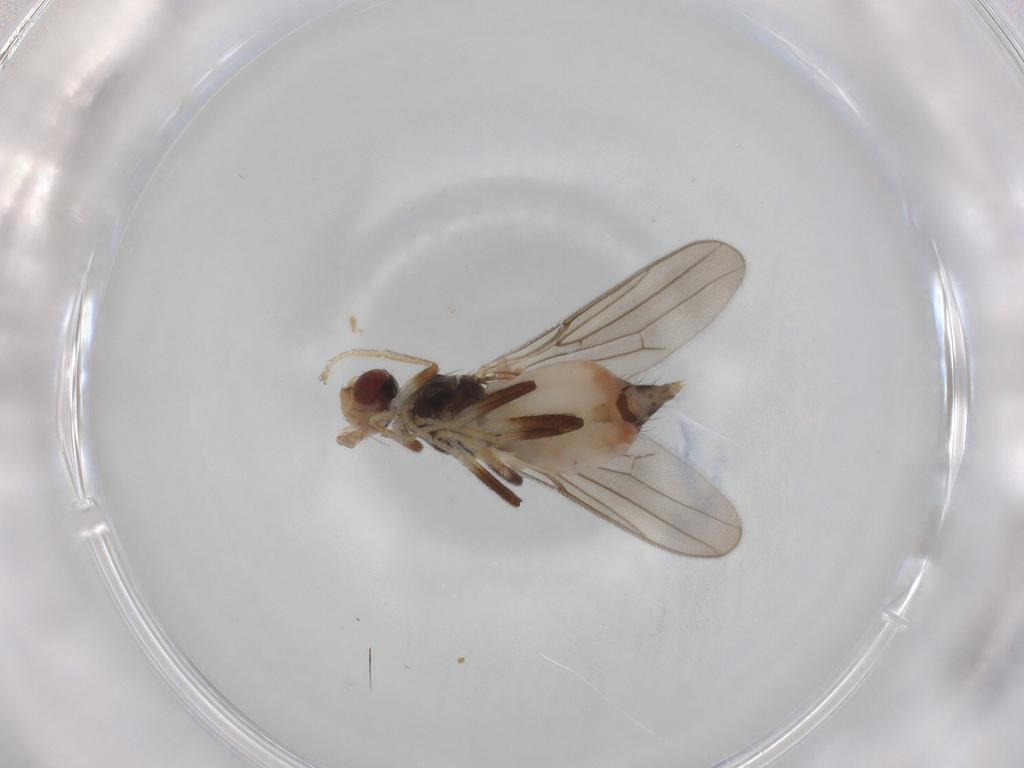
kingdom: Animalia
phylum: Arthropoda
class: Insecta
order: Diptera
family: Chloropidae
